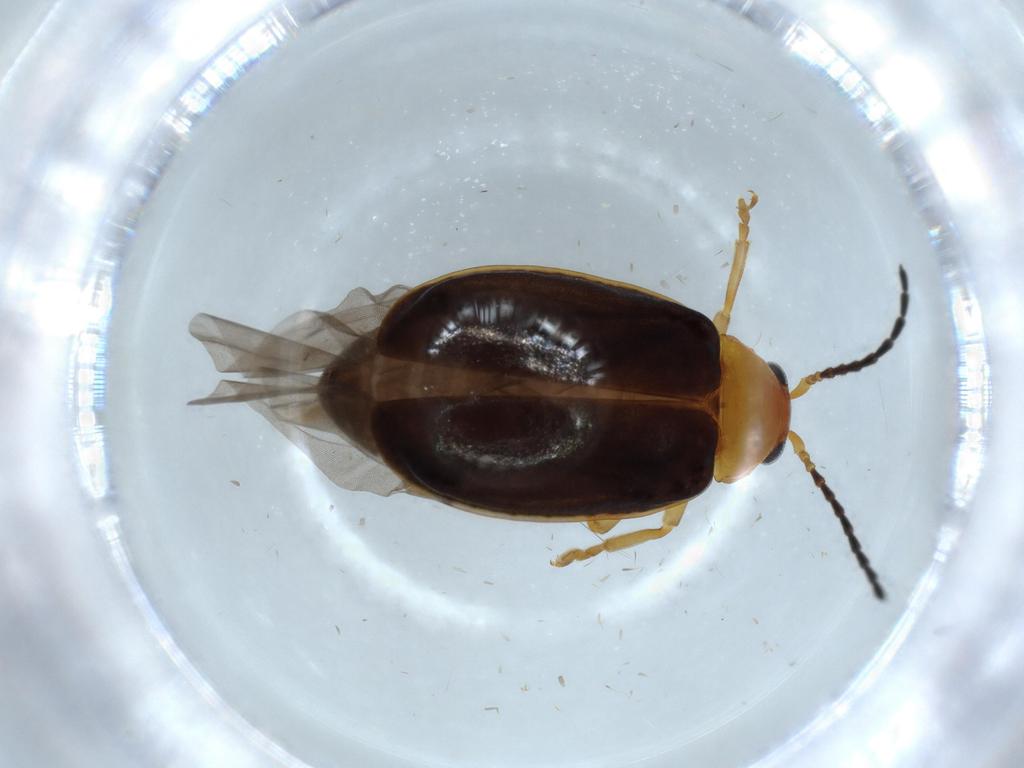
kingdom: Animalia
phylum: Arthropoda
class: Insecta
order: Coleoptera
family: Chrysomelidae
